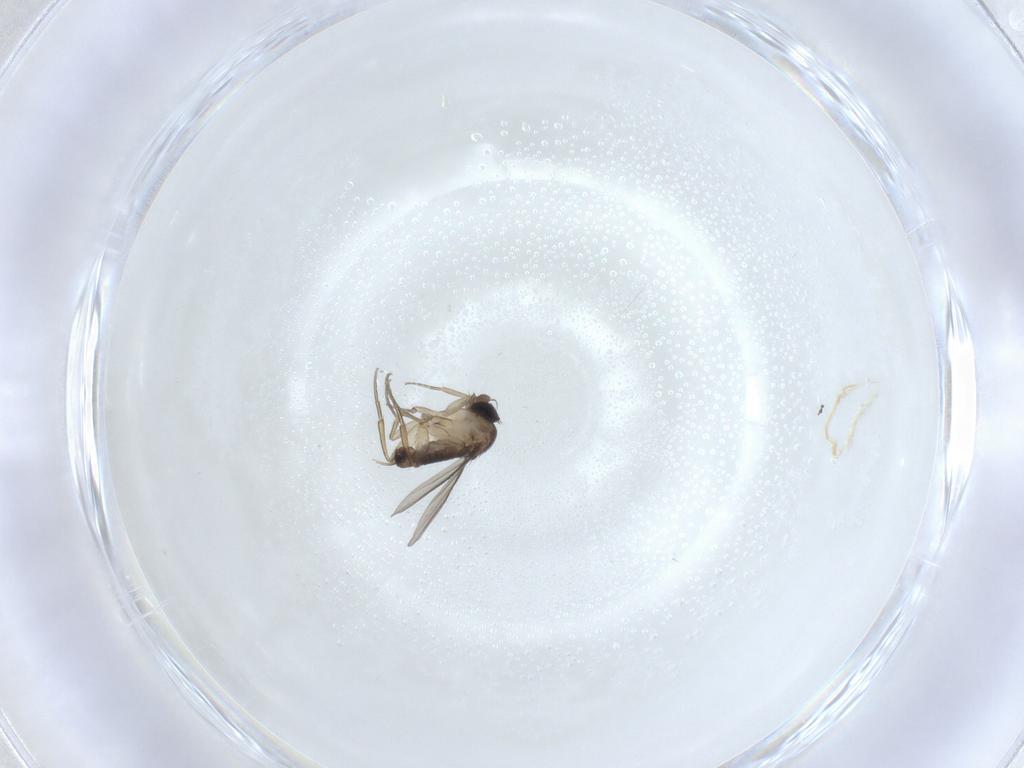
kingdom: Animalia
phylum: Arthropoda
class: Insecta
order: Diptera
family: Phoridae
